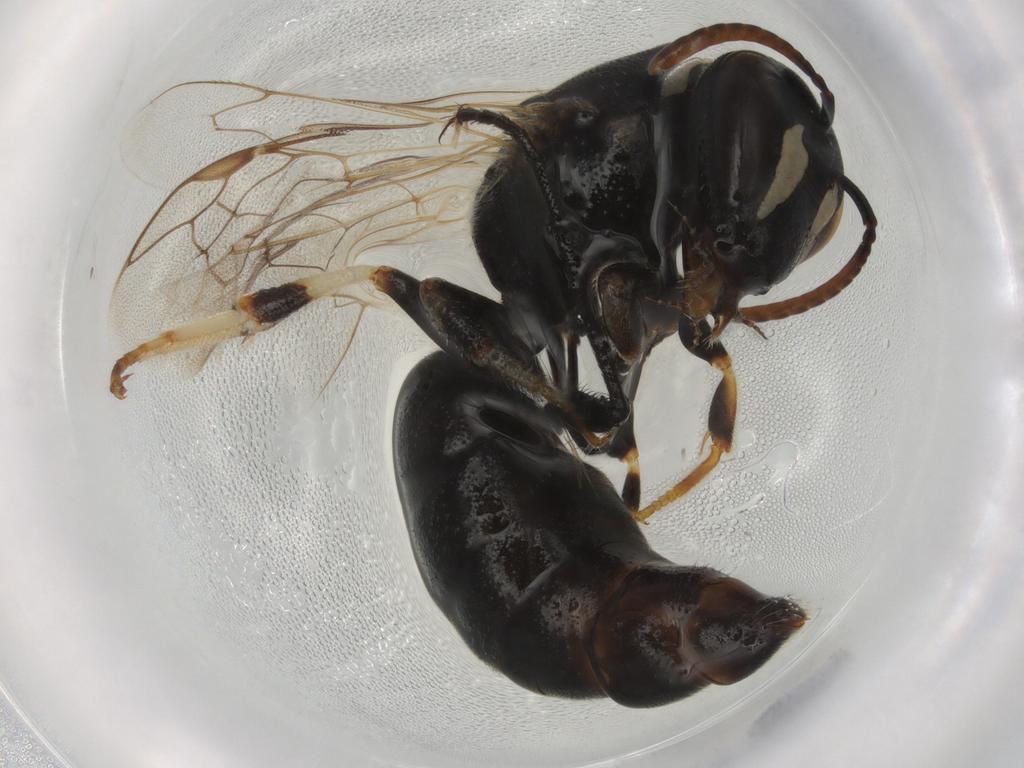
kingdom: Animalia
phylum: Arthropoda
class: Insecta
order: Hymenoptera
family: Colletidae
